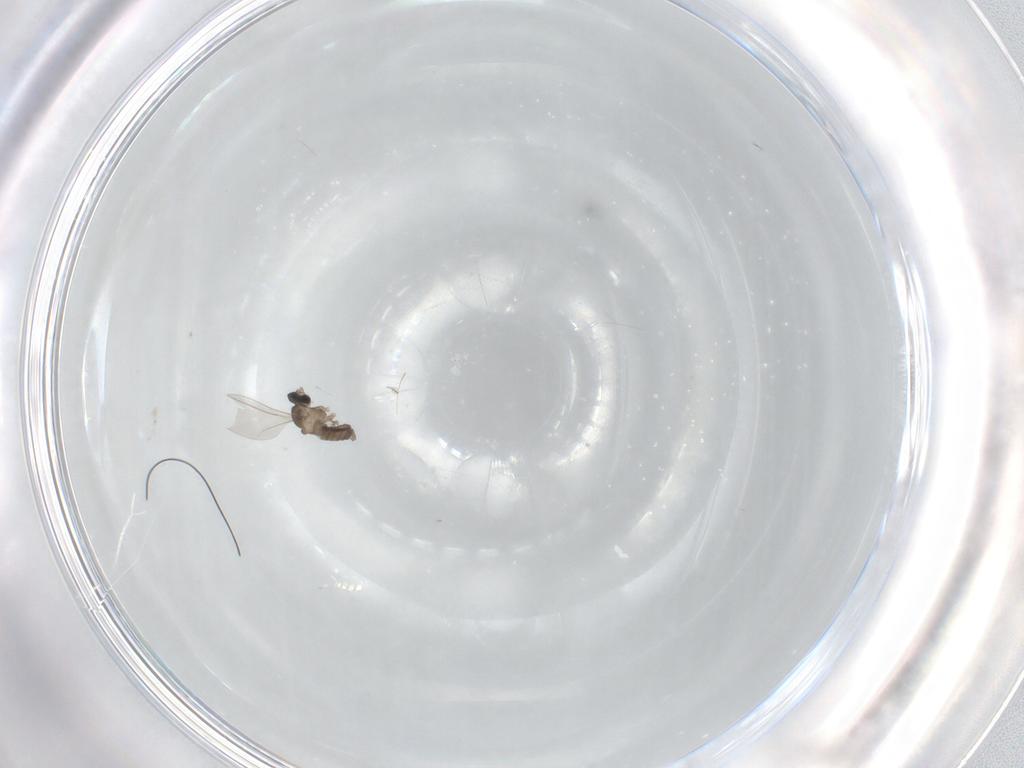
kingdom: Animalia
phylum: Arthropoda
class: Insecta
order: Diptera
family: Cecidomyiidae
